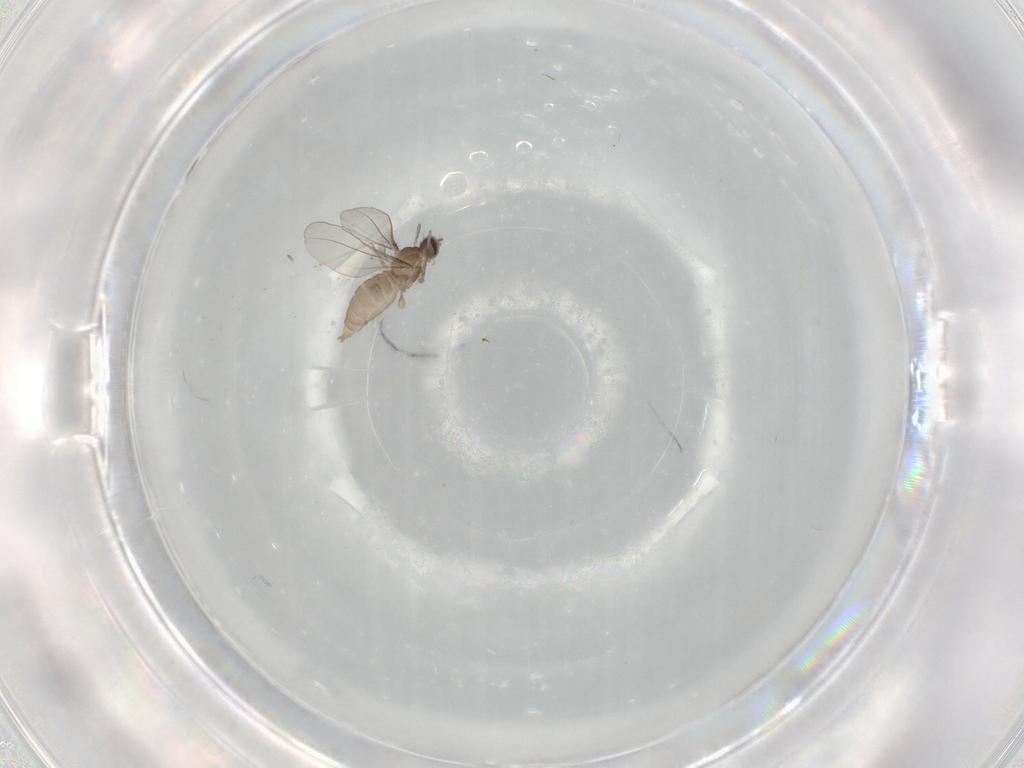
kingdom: Animalia
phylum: Arthropoda
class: Insecta
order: Diptera
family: Cecidomyiidae
